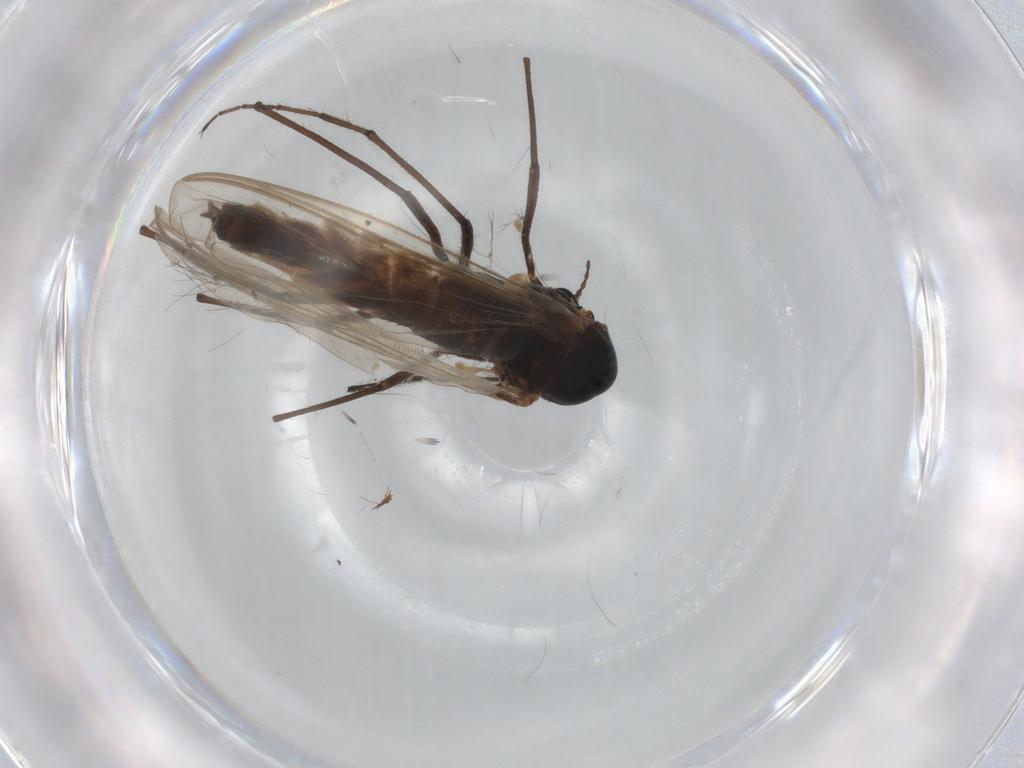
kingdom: Animalia
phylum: Arthropoda
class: Insecta
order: Diptera
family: Chironomidae
